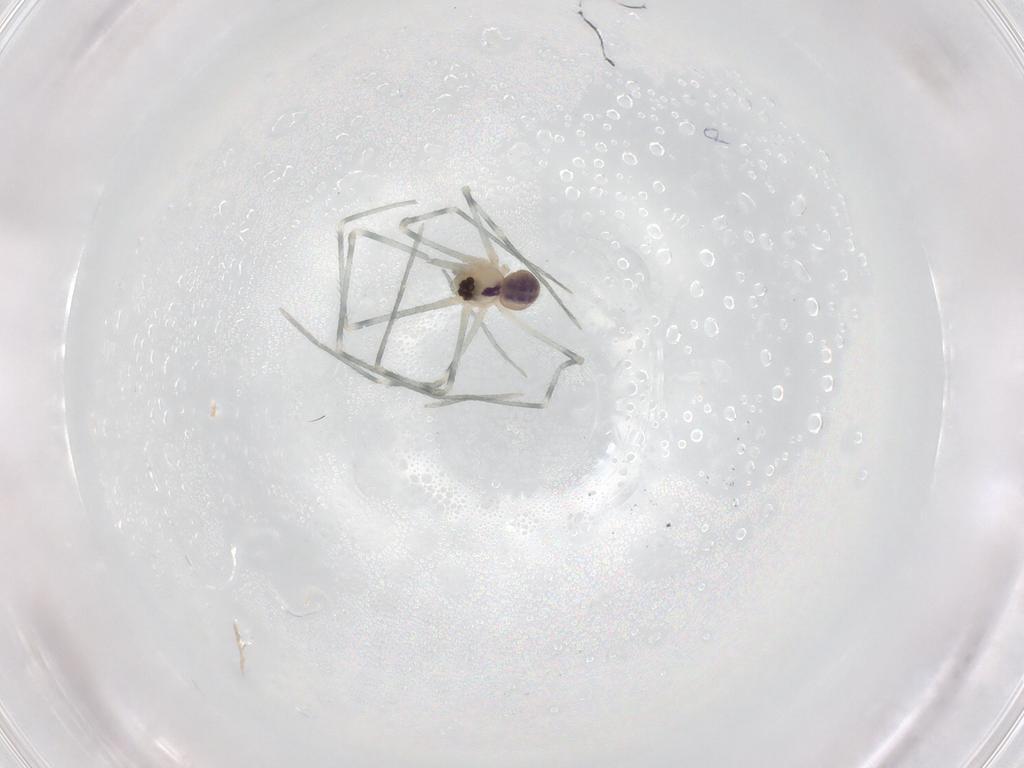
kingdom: Animalia
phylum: Arthropoda
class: Arachnida
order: Araneae
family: Pholcidae
